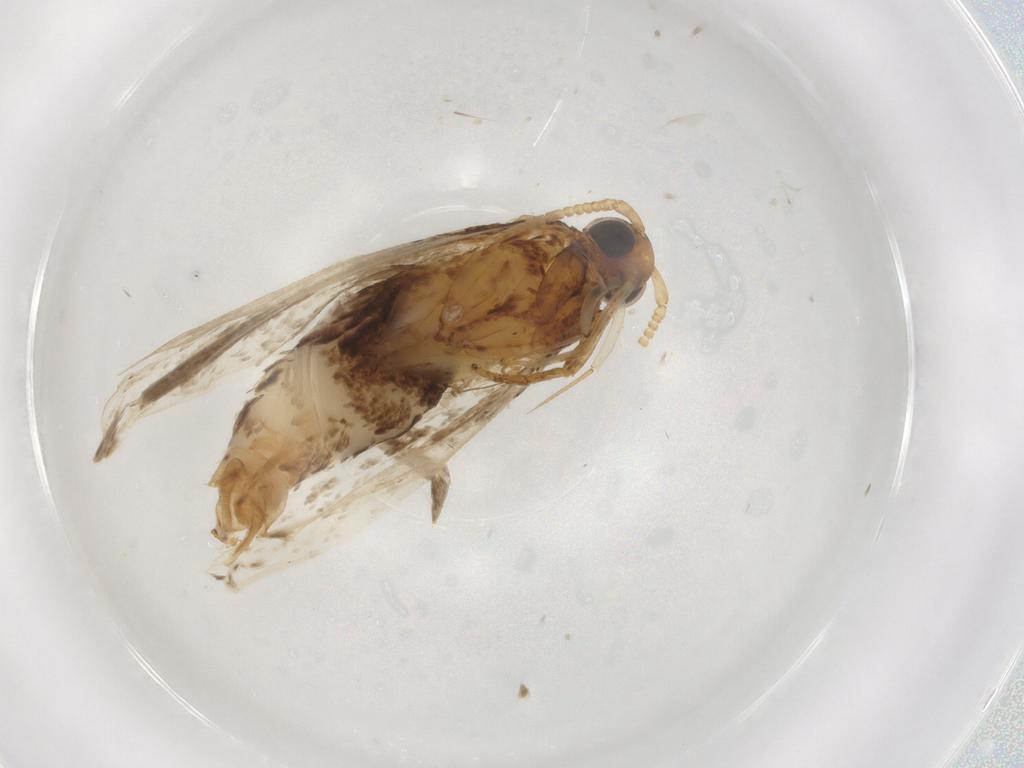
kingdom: Animalia
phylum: Arthropoda
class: Insecta
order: Lepidoptera
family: Lecithoceridae
